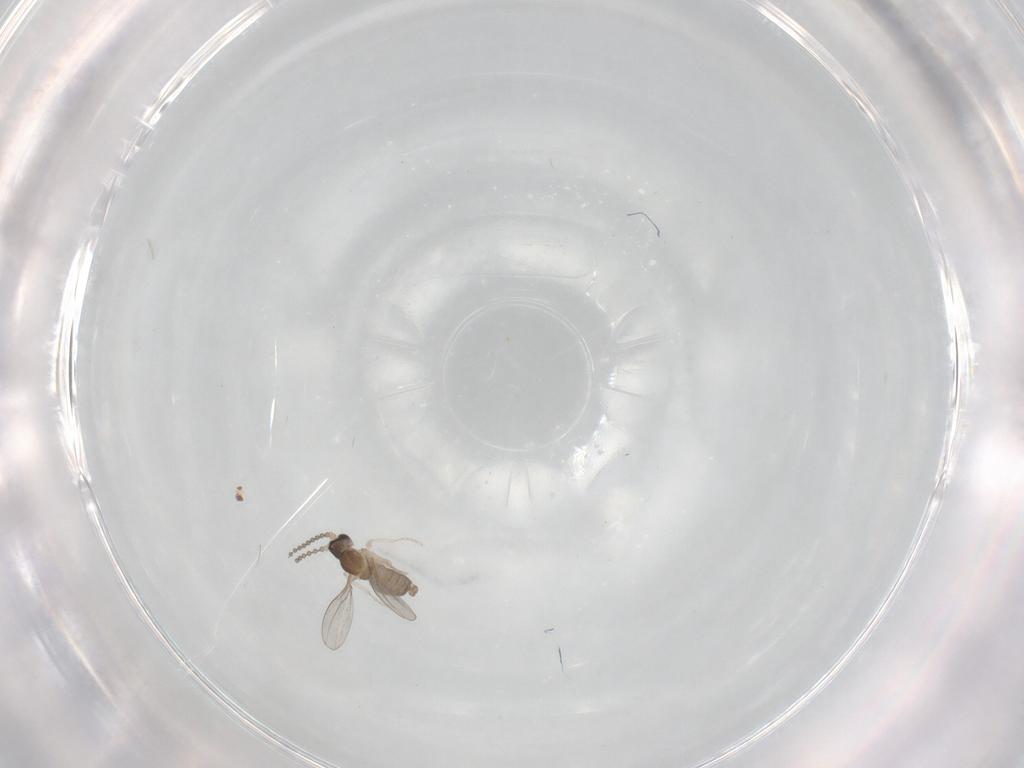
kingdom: Animalia
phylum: Arthropoda
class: Insecta
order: Diptera
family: Cecidomyiidae
